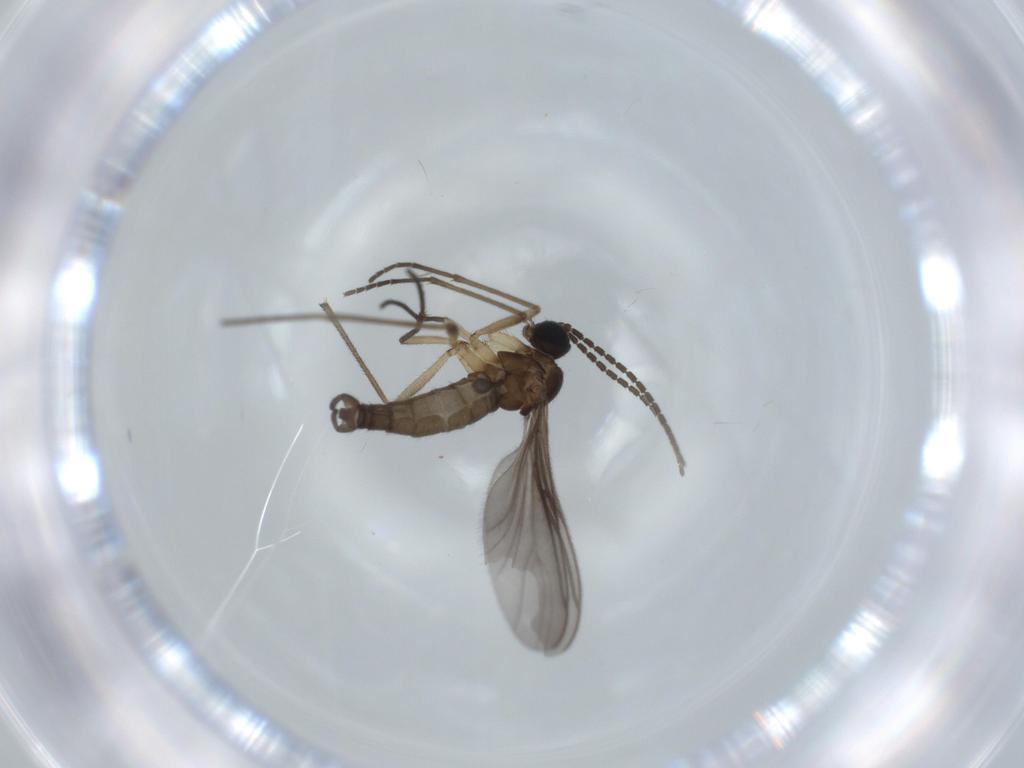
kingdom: Animalia
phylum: Arthropoda
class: Insecta
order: Diptera
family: Sciaridae
